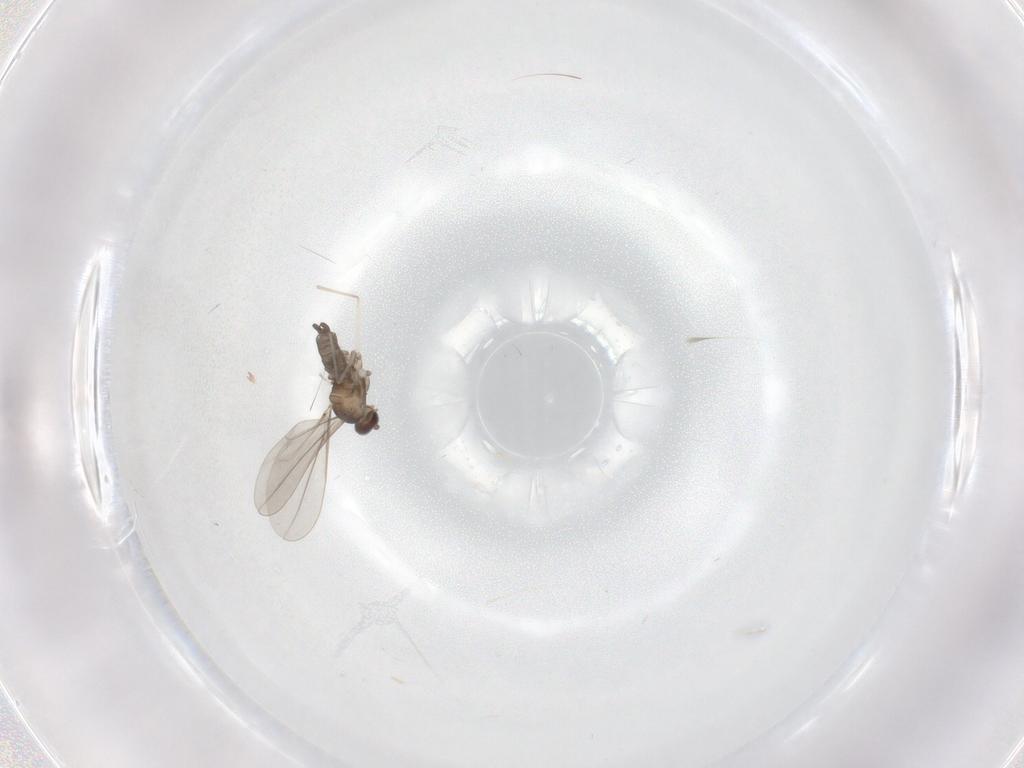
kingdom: Animalia
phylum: Arthropoda
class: Insecta
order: Diptera
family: Cecidomyiidae
